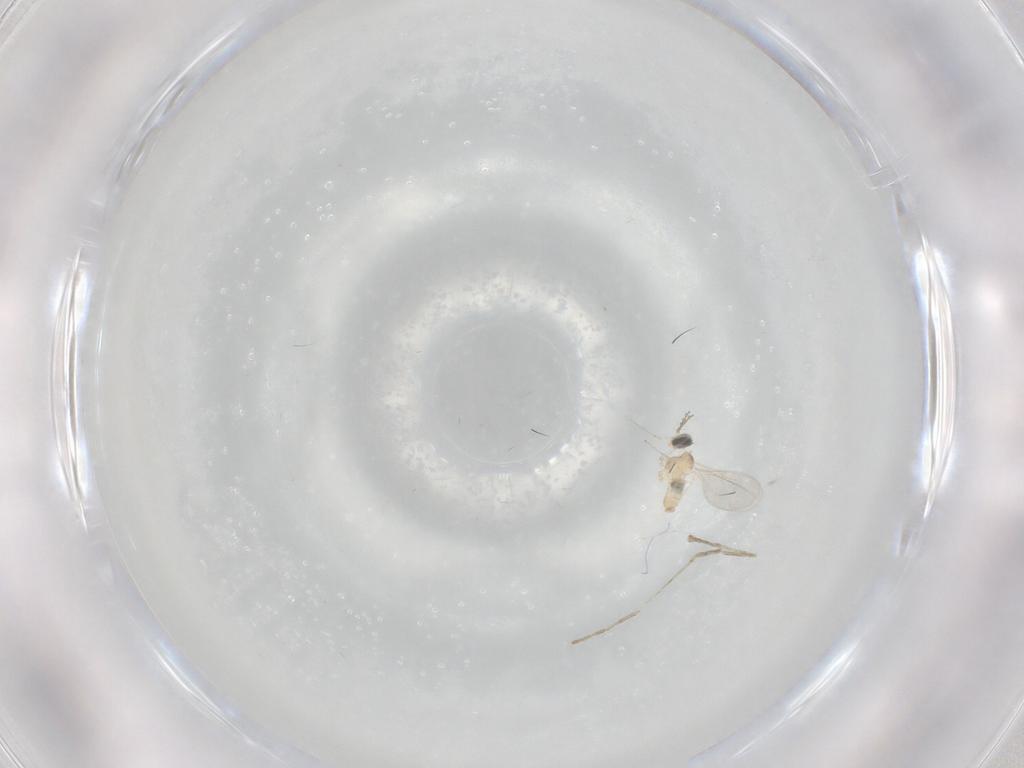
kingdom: Animalia
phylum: Arthropoda
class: Insecta
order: Diptera
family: Cecidomyiidae
